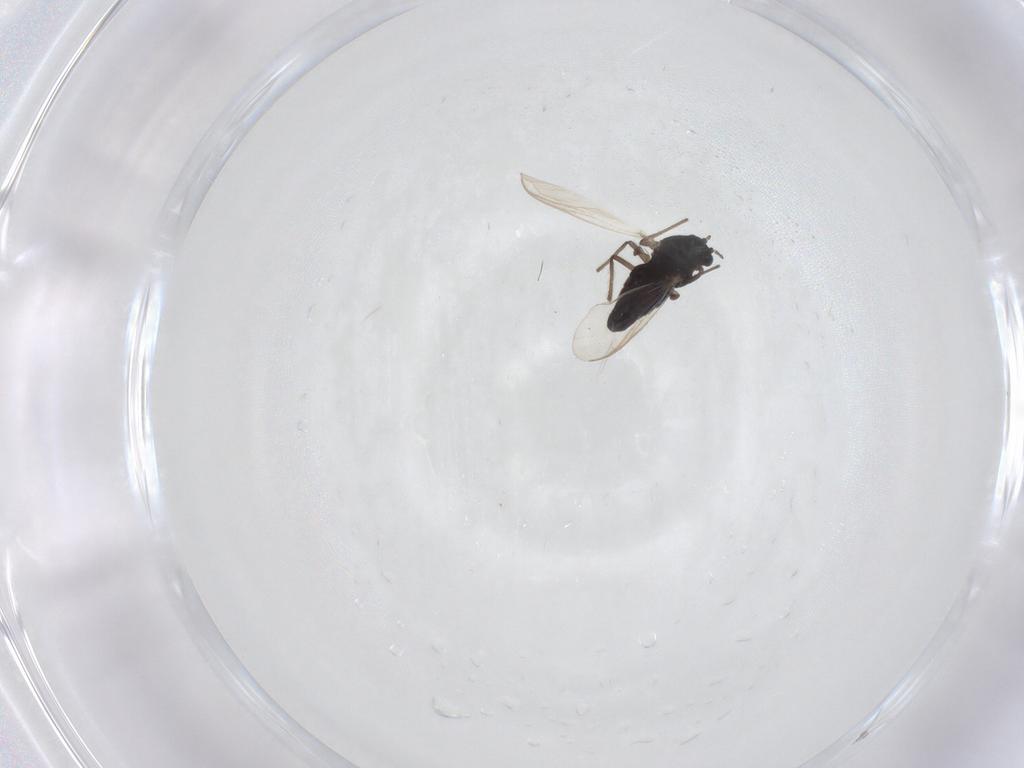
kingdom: Animalia
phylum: Arthropoda
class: Insecta
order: Diptera
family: Chironomidae
